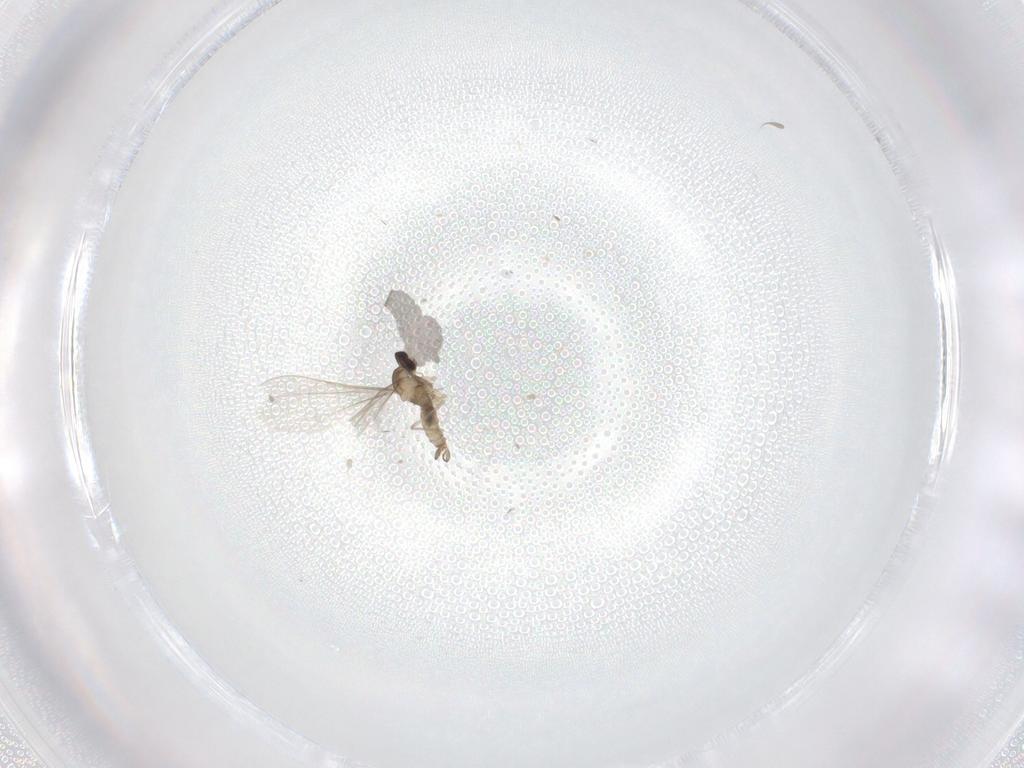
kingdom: Animalia
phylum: Arthropoda
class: Insecta
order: Diptera
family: Cecidomyiidae
